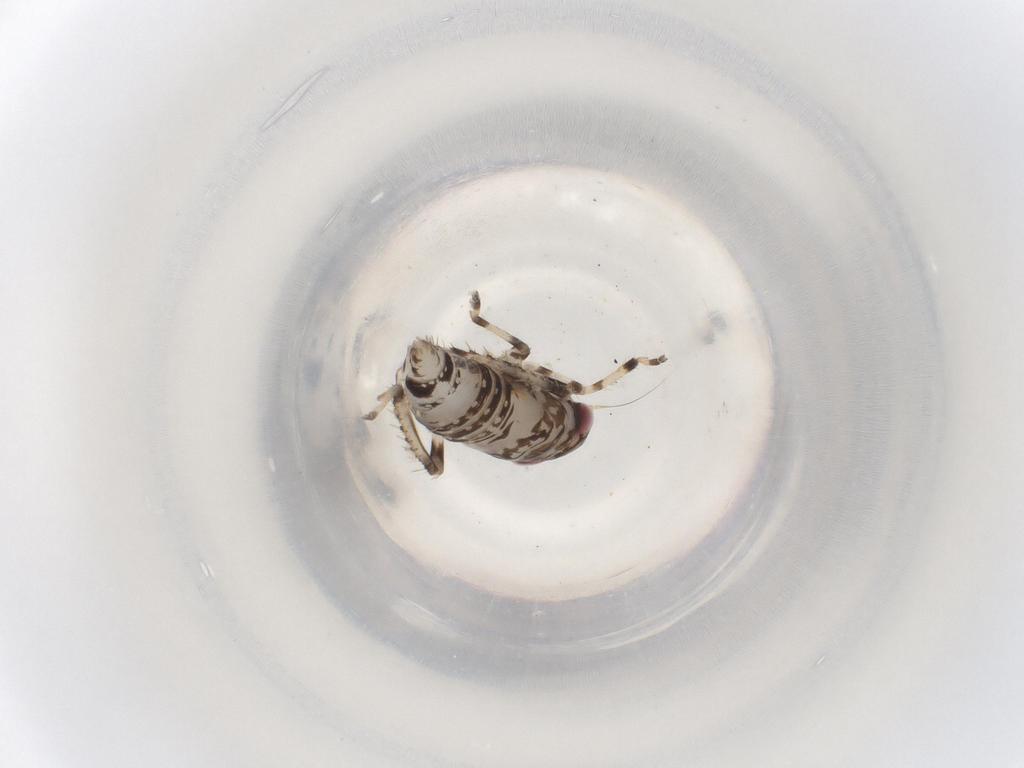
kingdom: Animalia
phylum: Arthropoda
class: Insecta
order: Hemiptera
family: Cicadellidae
